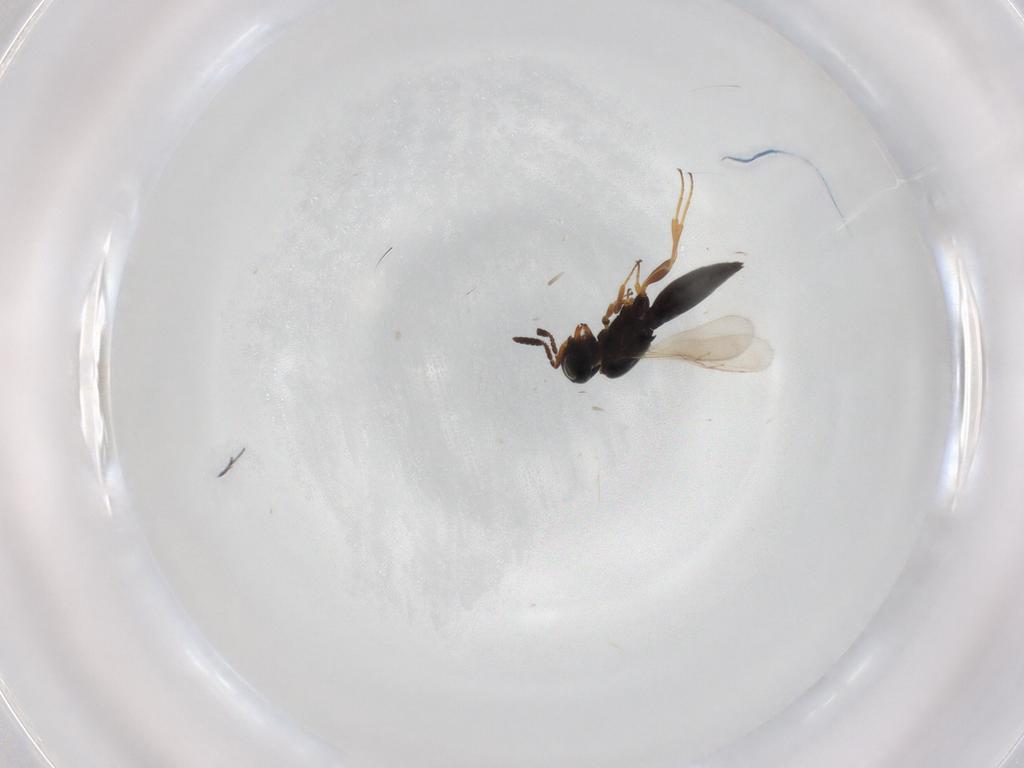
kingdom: Animalia
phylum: Arthropoda
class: Insecta
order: Hymenoptera
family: Scelionidae
